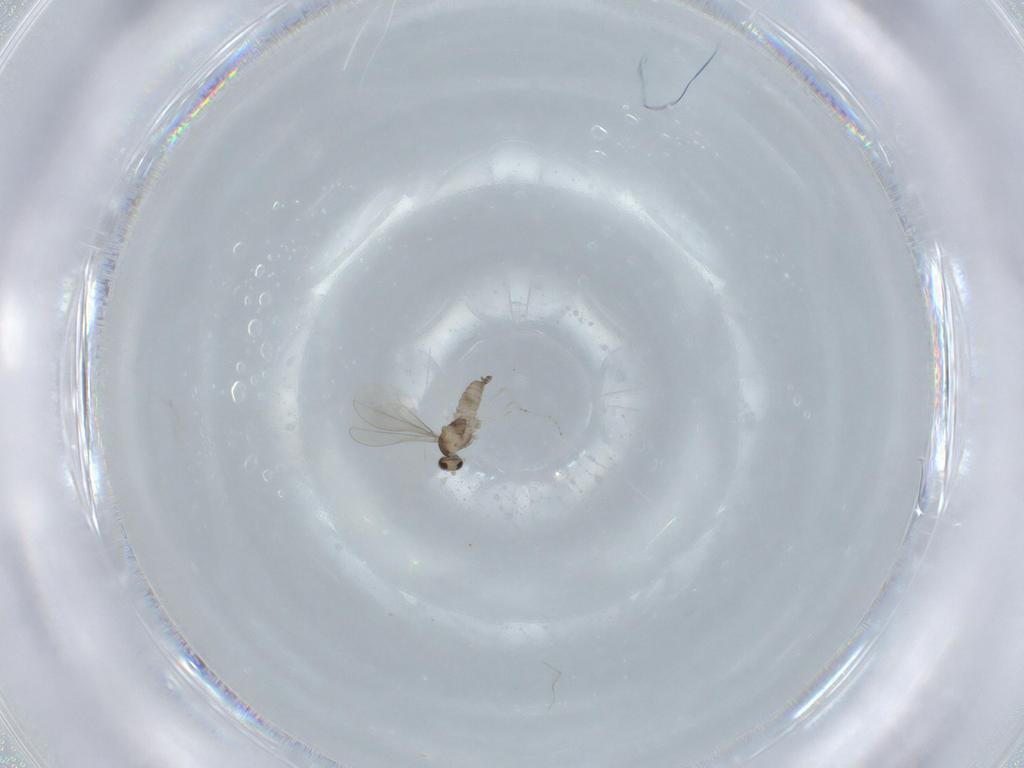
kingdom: Animalia
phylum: Arthropoda
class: Insecta
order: Diptera
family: Cecidomyiidae
